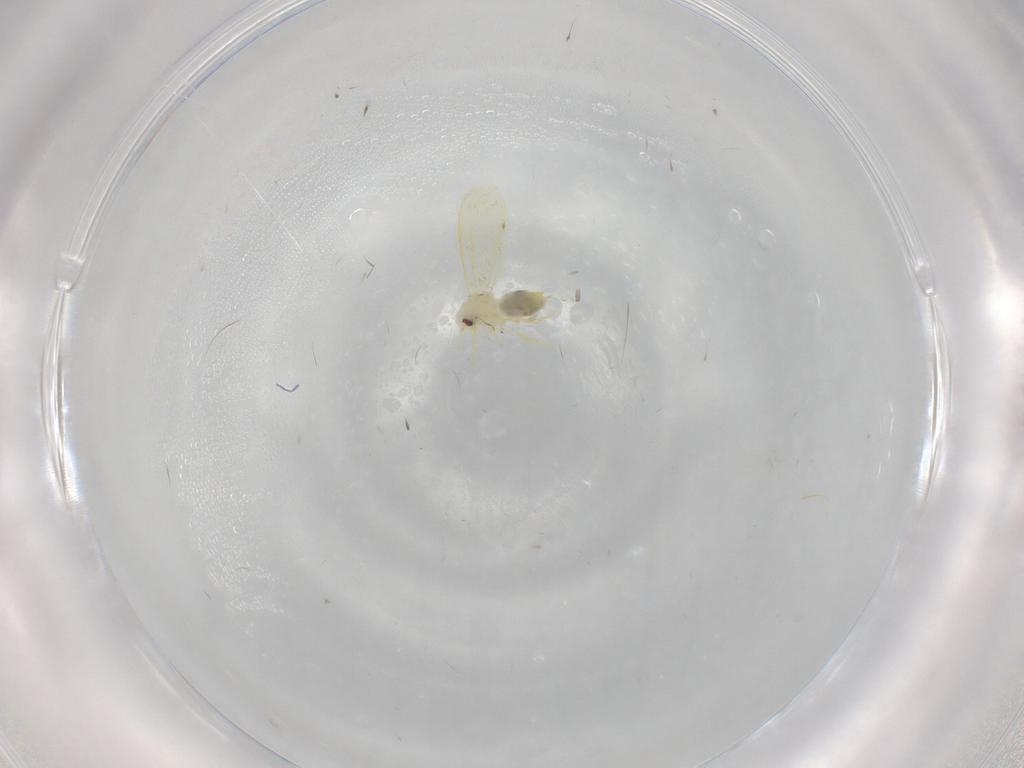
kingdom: Animalia
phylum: Arthropoda
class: Insecta
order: Hemiptera
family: Aleyrodidae
